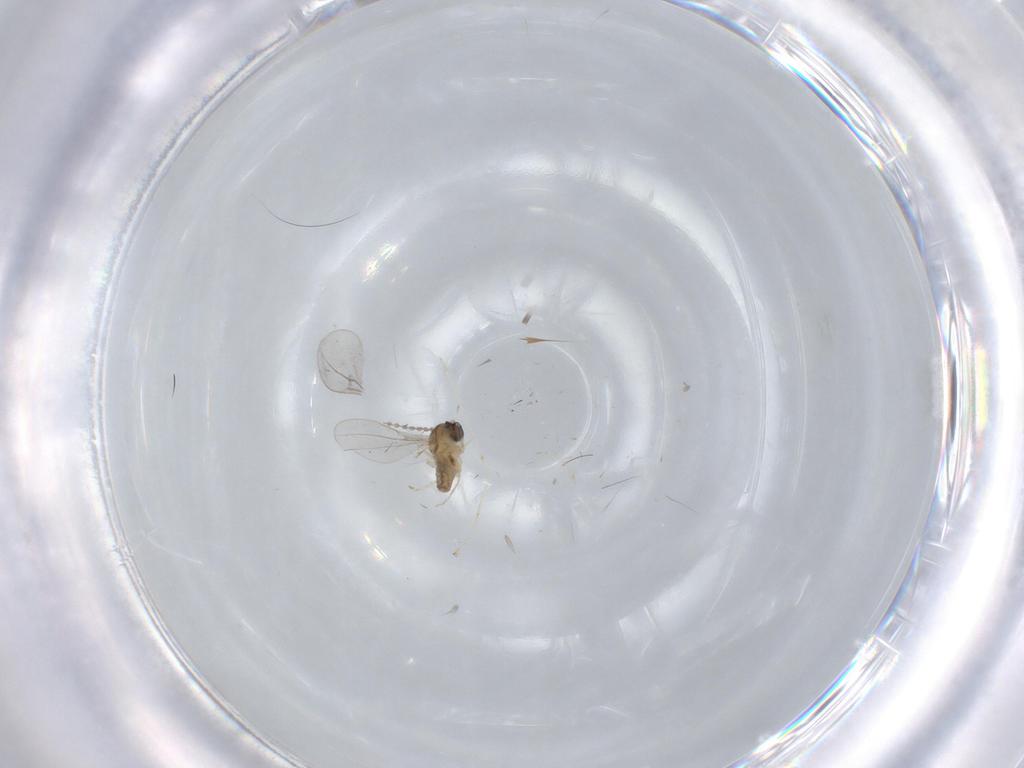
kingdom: Animalia
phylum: Arthropoda
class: Insecta
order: Diptera
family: Phoridae
